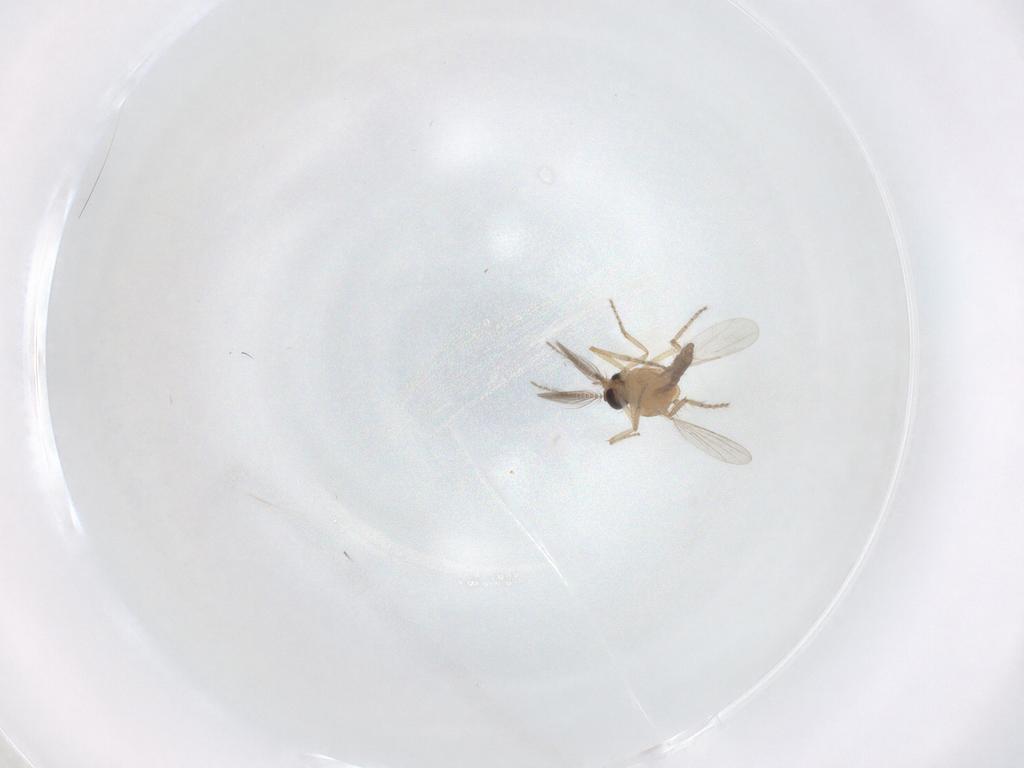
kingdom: Animalia
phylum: Arthropoda
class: Insecta
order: Diptera
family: Ceratopogonidae
